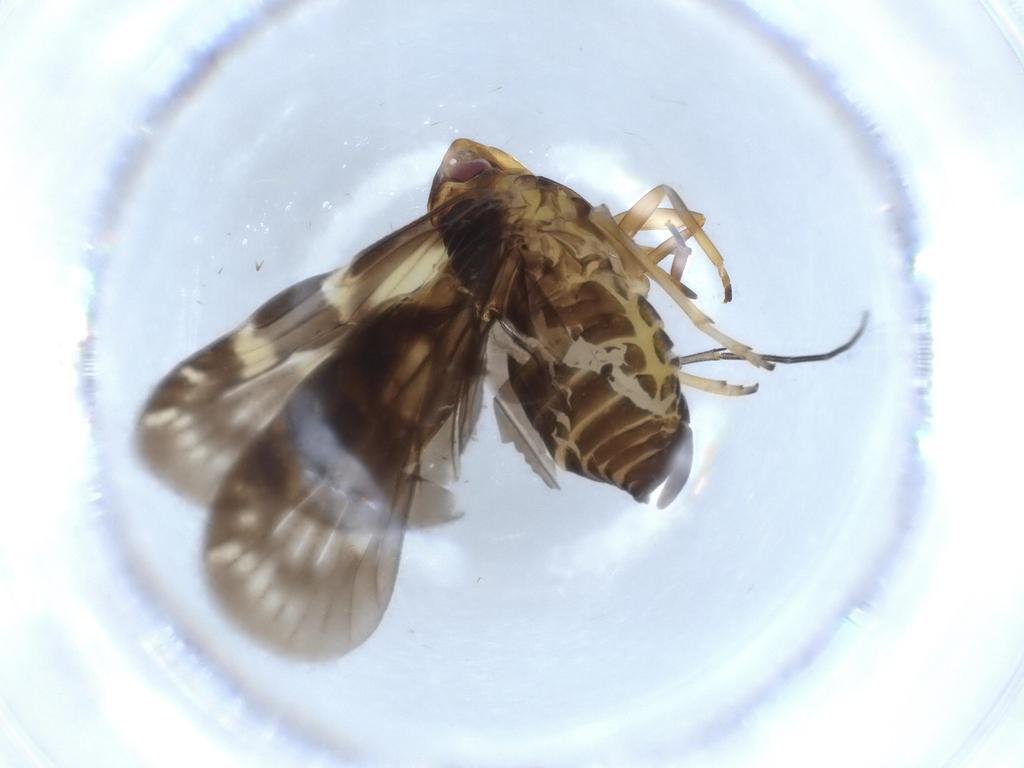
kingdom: Animalia
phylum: Arthropoda
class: Insecta
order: Hemiptera
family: Cixiidae
